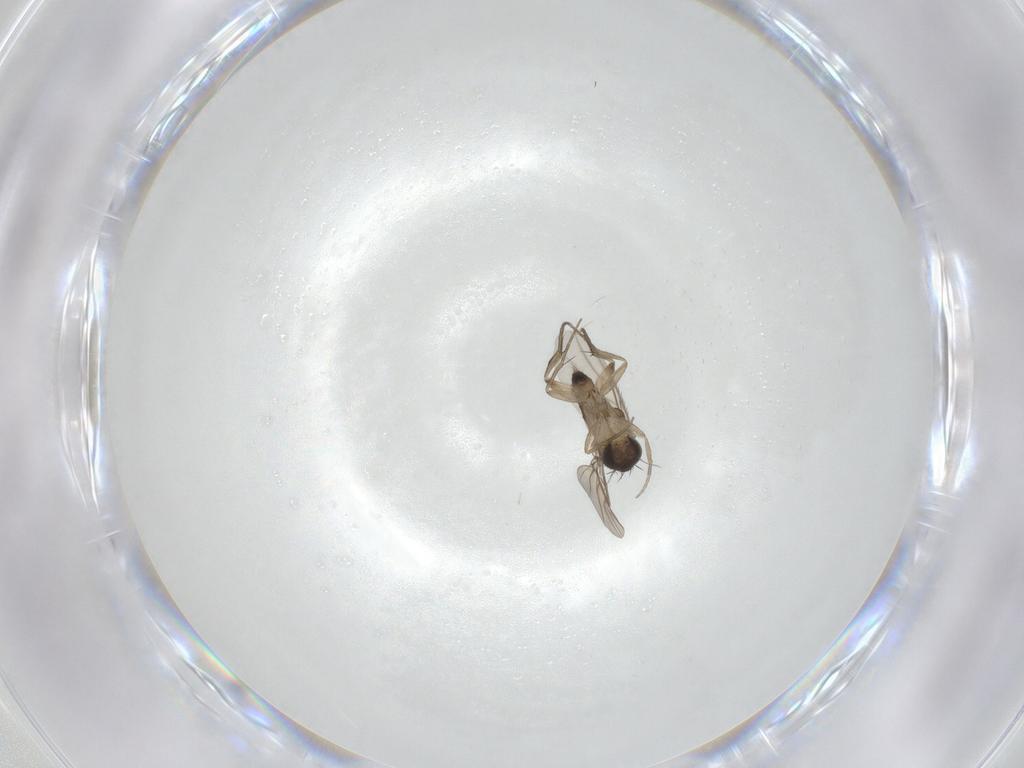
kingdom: Animalia
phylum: Arthropoda
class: Insecta
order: Diptera
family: Phoridae
